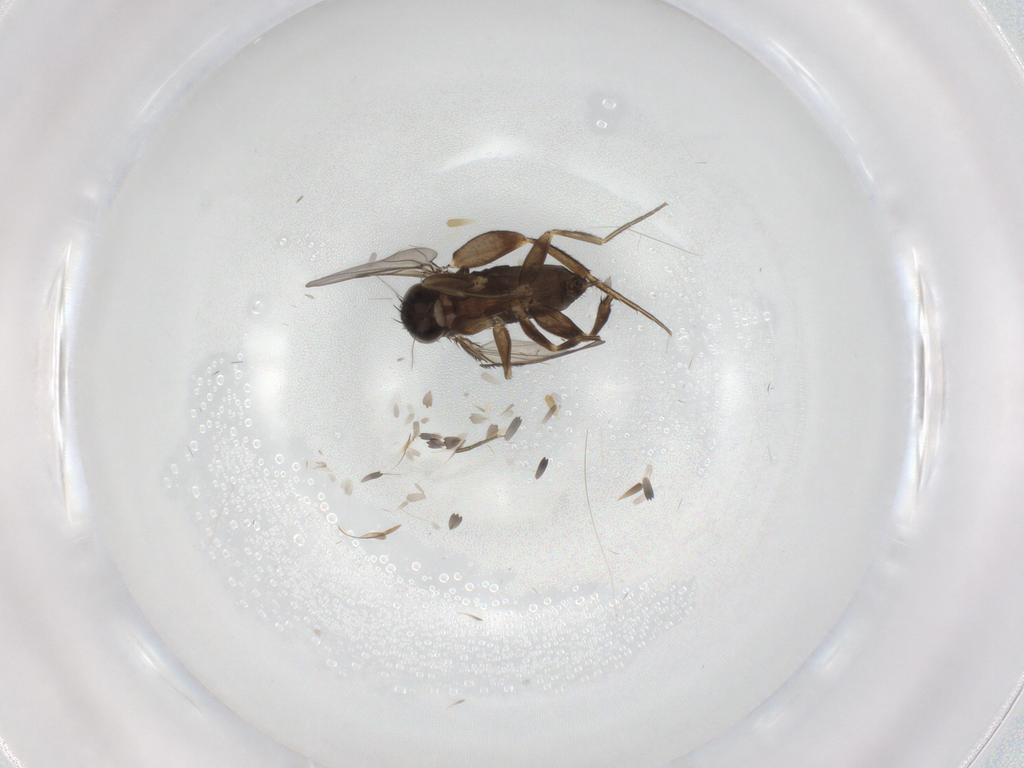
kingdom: Animalia
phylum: Arthropoda
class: Insecta
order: Diptera
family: Phoridae
